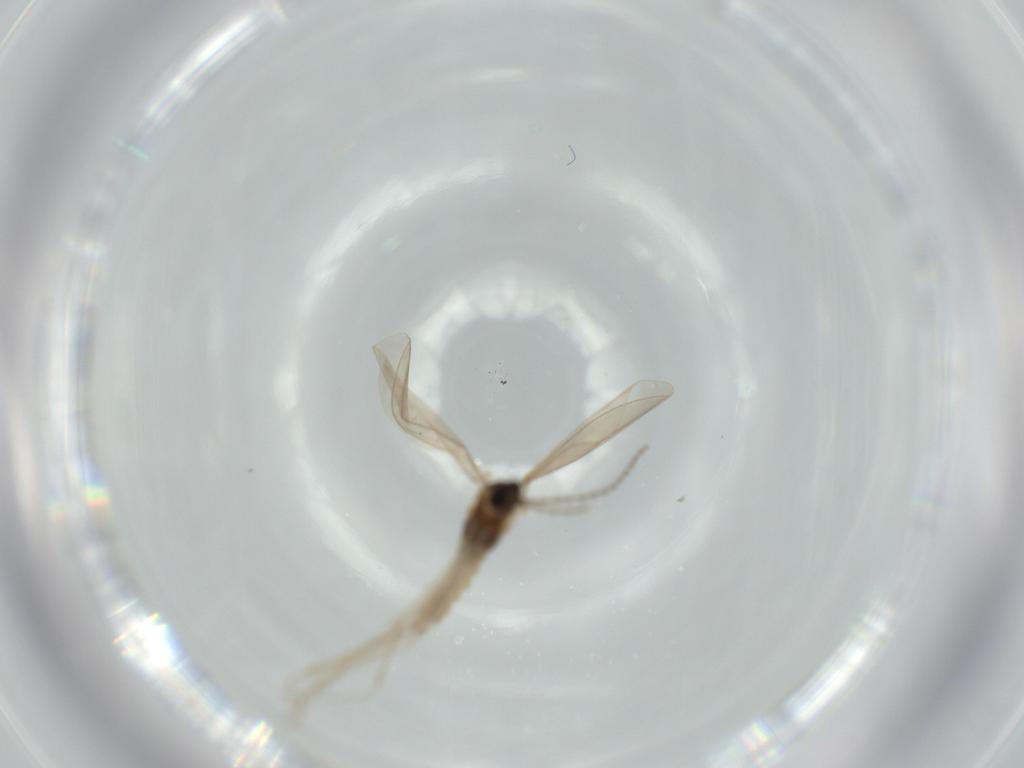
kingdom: Animalia
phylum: Arthropoda
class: Insecta
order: Diptera
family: Cecidomyiidae
